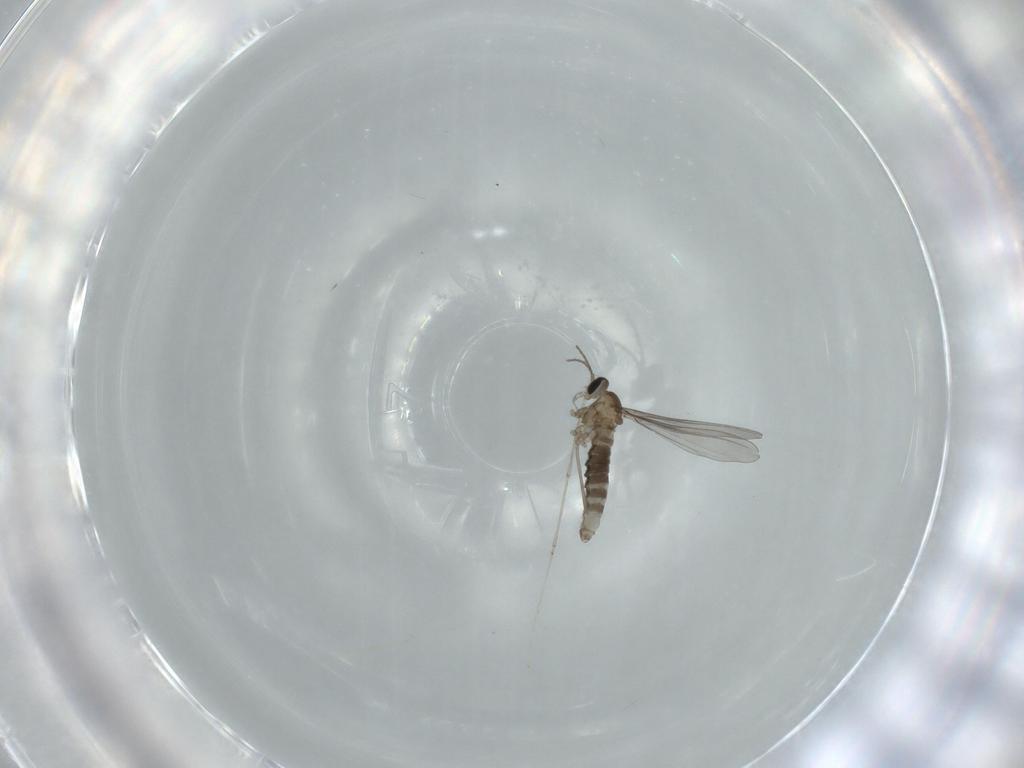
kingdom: Animalia
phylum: Arthropoda
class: Insecta
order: Diptera
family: Cecidomyiidae
